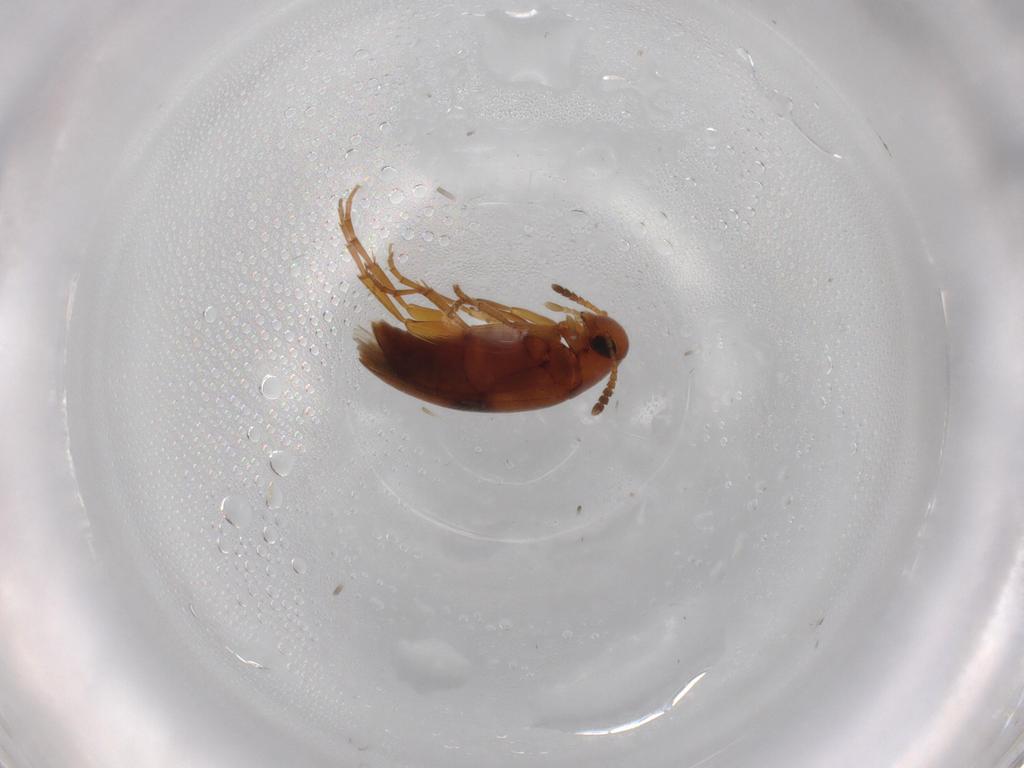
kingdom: Animalia
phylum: Arthropoda
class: Insecta
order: Coleoptera
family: Scraptiidae
